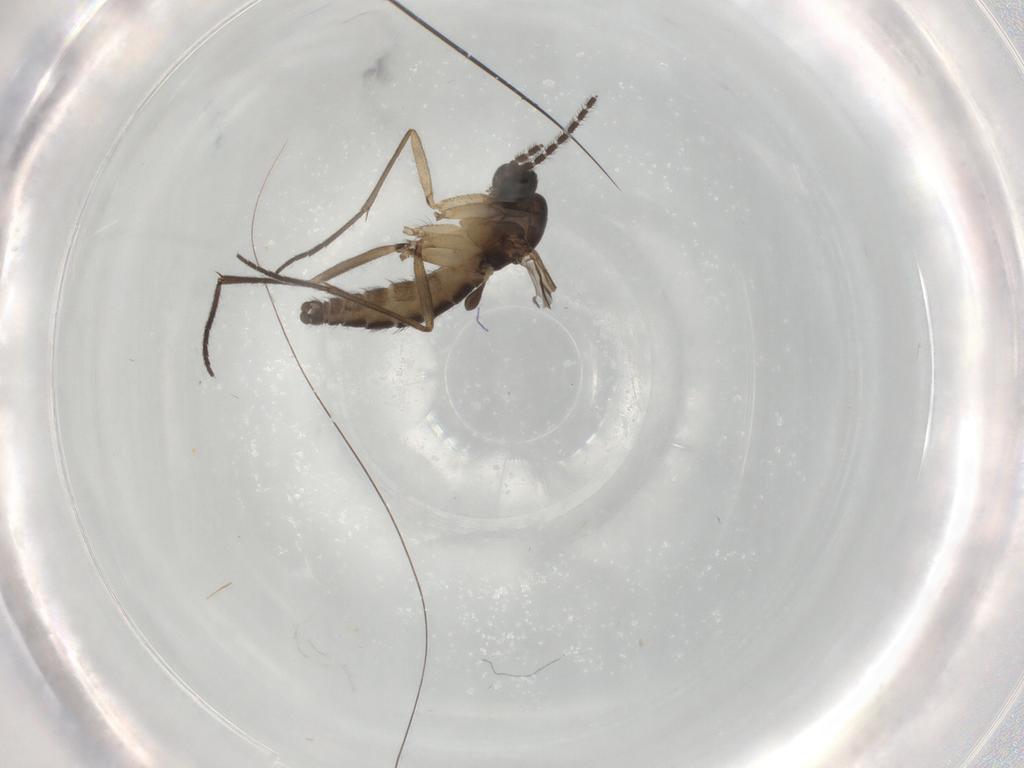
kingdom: Animalia
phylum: Arthropoda
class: Insecta
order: Diptera
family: Sciaridae
